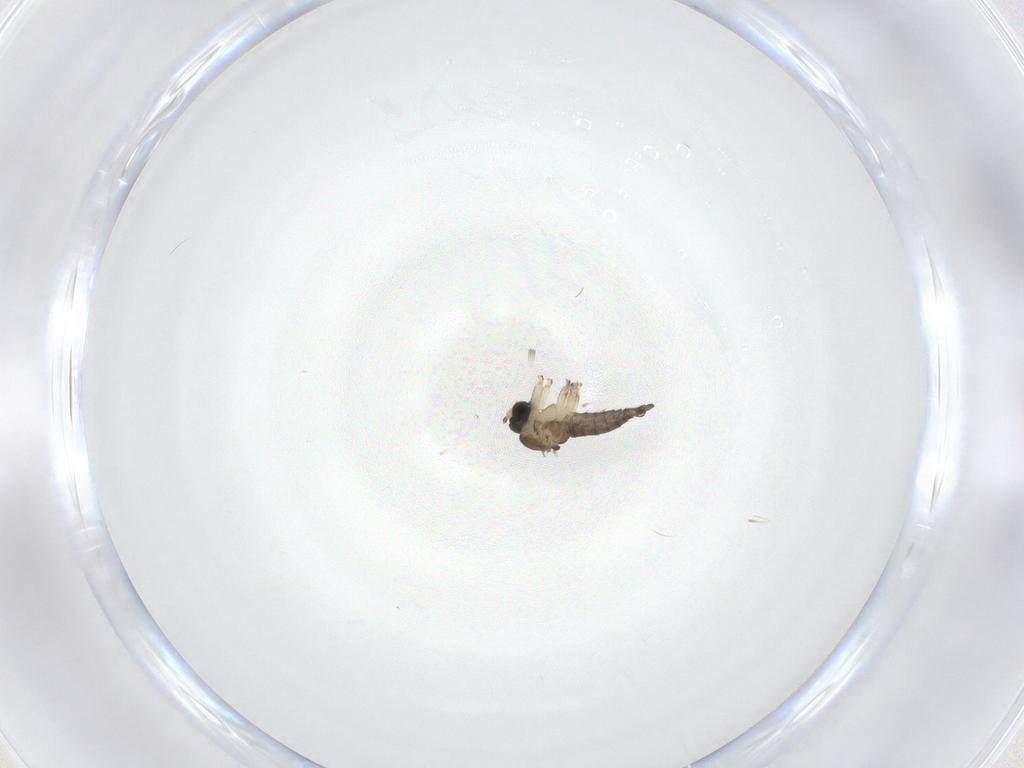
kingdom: Animalia
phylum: Arthropoda
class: Insecta
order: Diptera
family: Sciaridae
